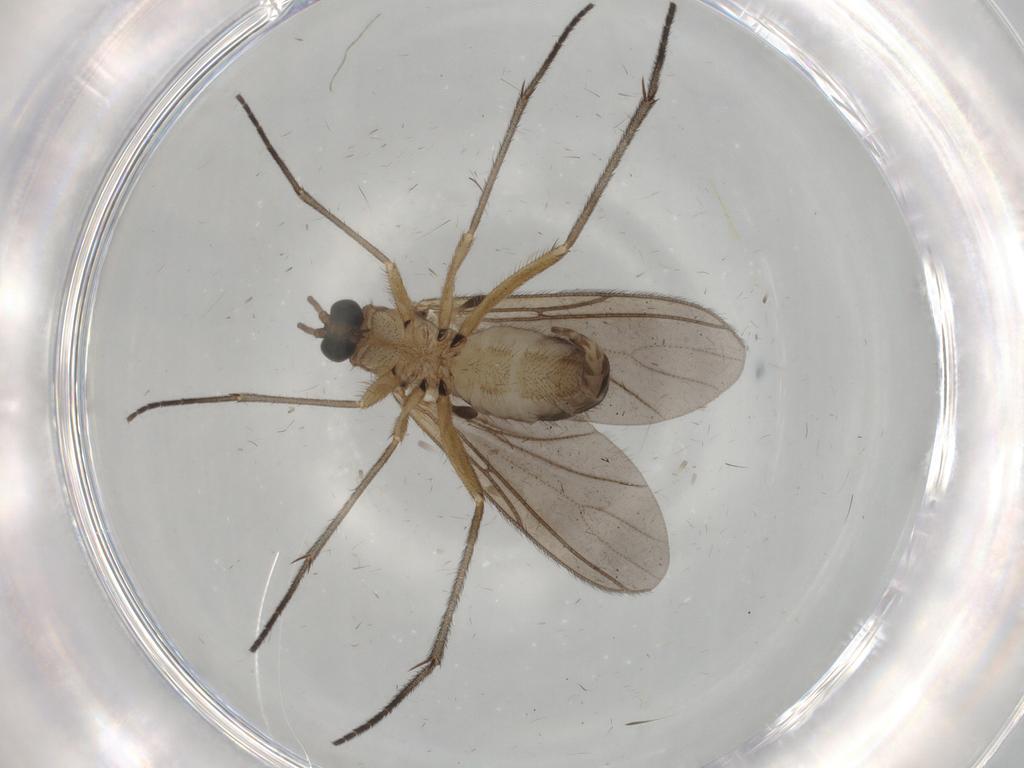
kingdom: Animalia
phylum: Arthropoda
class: Insecta
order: Diptera
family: Sciaridae
